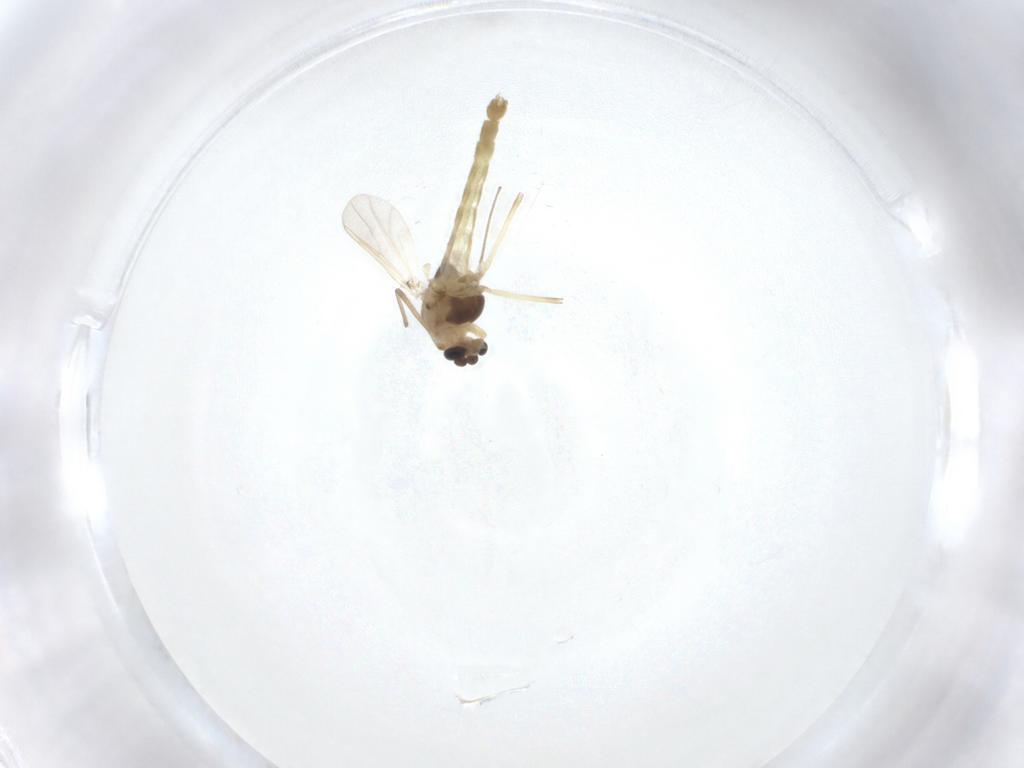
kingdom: Animalia
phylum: Arthropoda
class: Insecta
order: Diptera
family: Chironomidae
